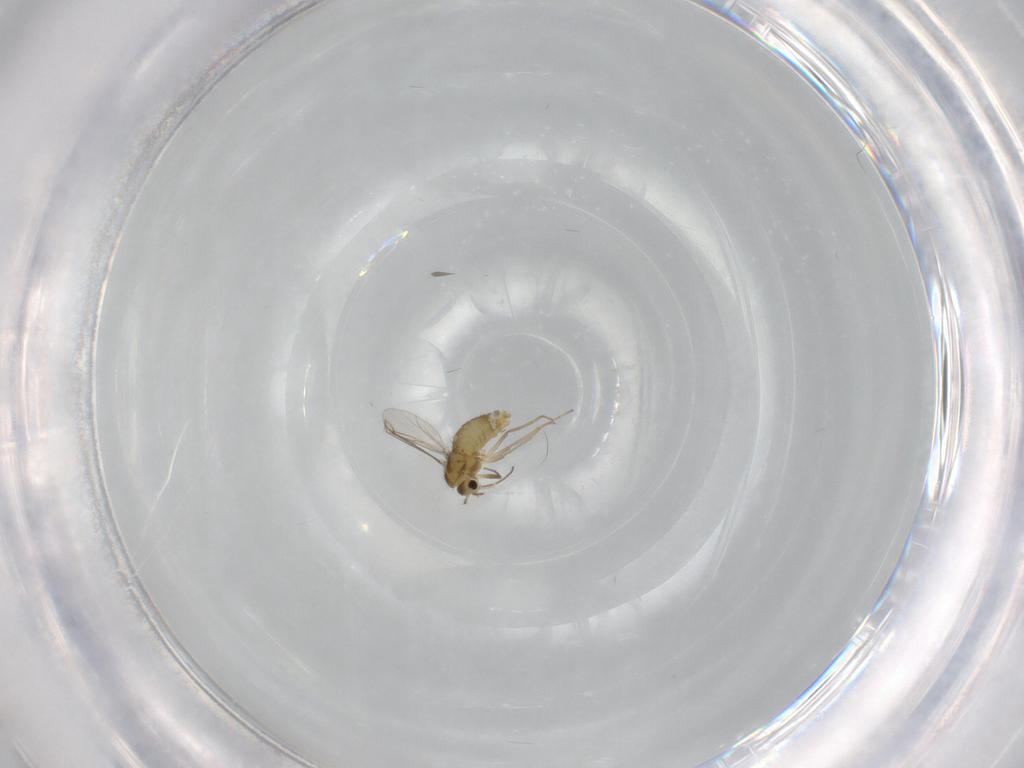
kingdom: Animalia
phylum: Arthropoda
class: Insecta
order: Diptera
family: Chironomidae
